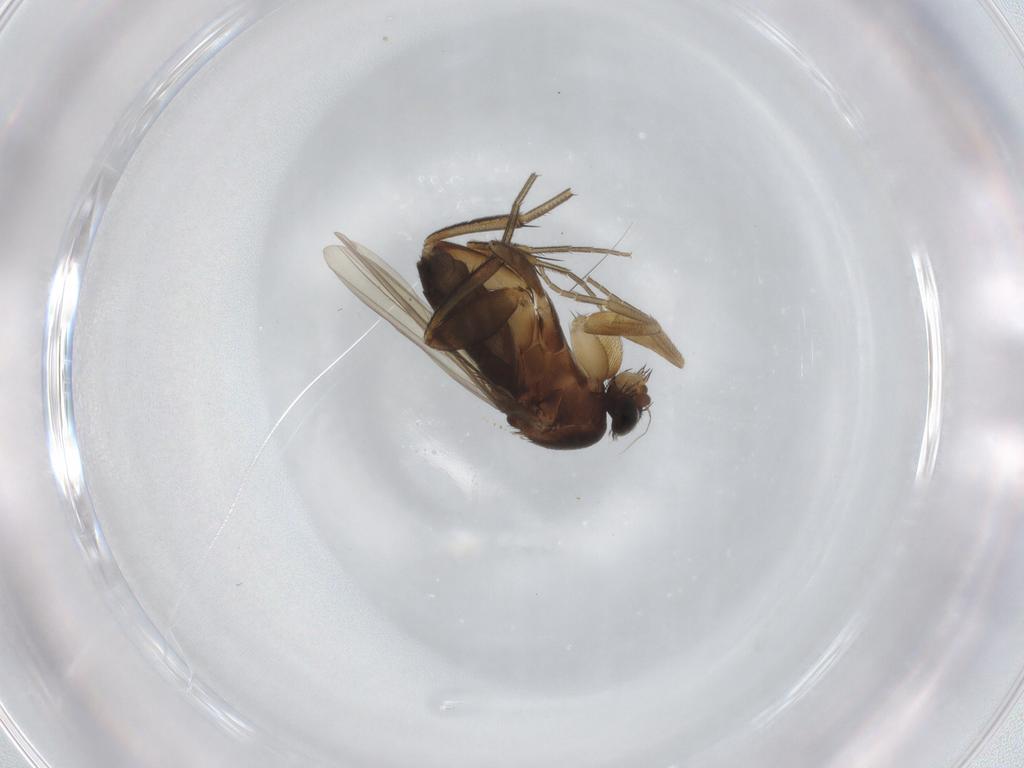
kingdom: Animalia
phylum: Arthropoda
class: Insecta
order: Diptera
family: Phoridae
